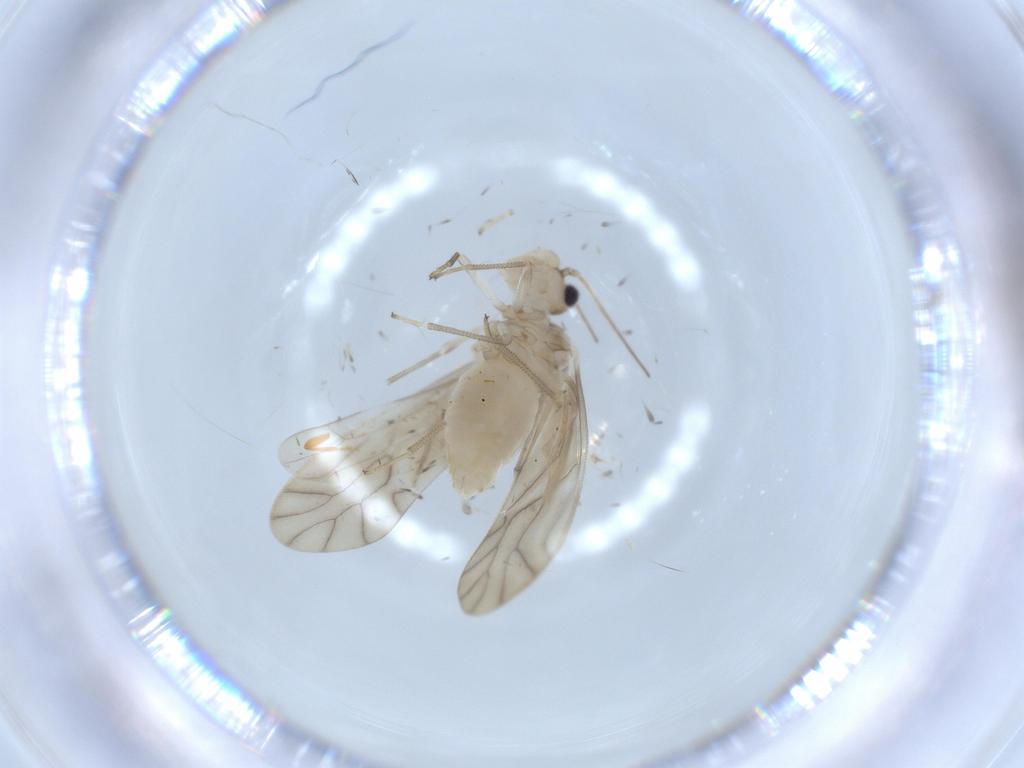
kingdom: Animalia
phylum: Arthropoda
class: Insecta
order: Psocodea
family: Caeciliusidae
